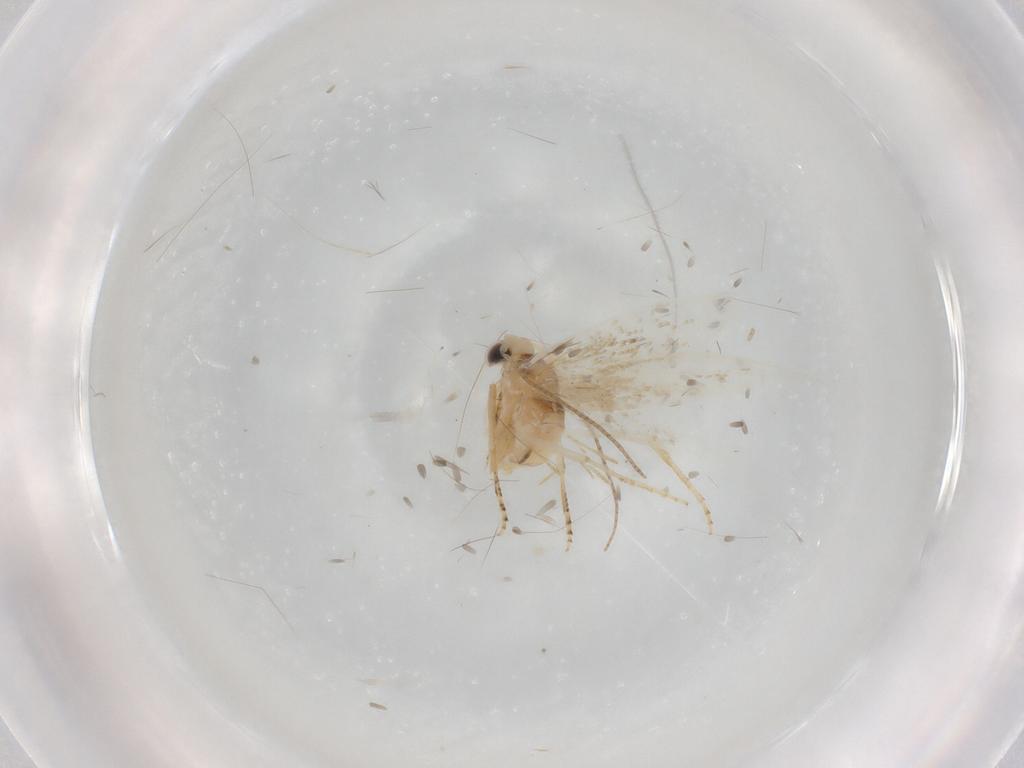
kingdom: Animalia
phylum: Arthropoda
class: Insecta
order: Lepidoptera
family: Bucculatricidae
